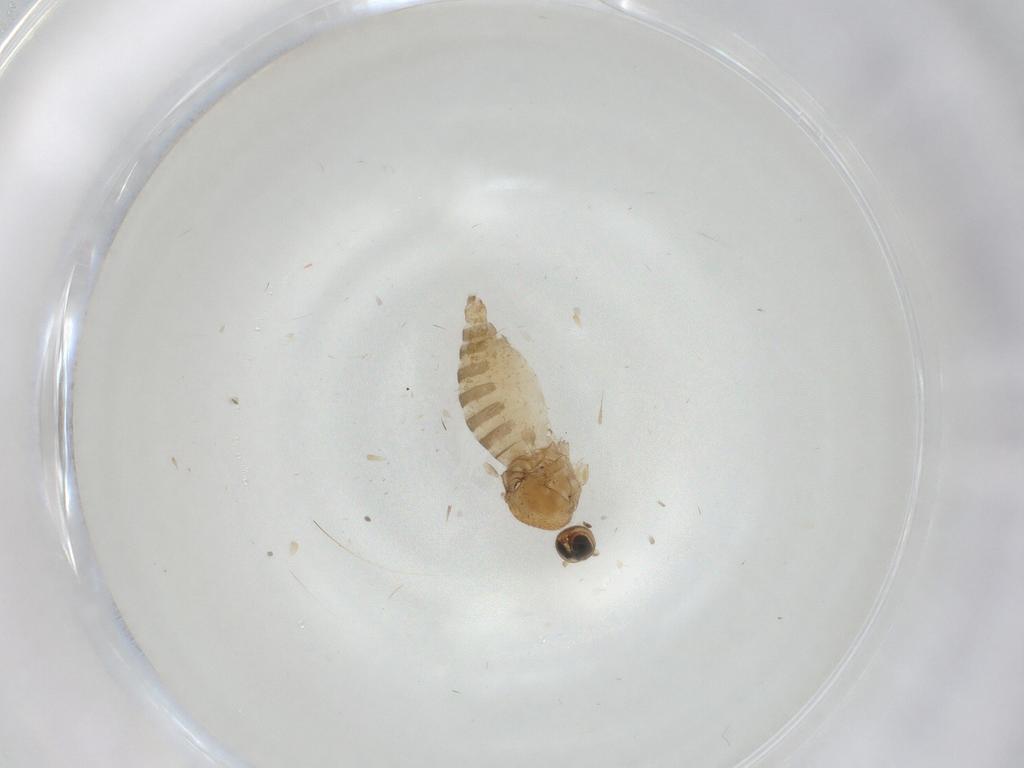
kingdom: Animalia
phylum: Arthropoda
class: Insecta
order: Diptera
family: Hybotidae
